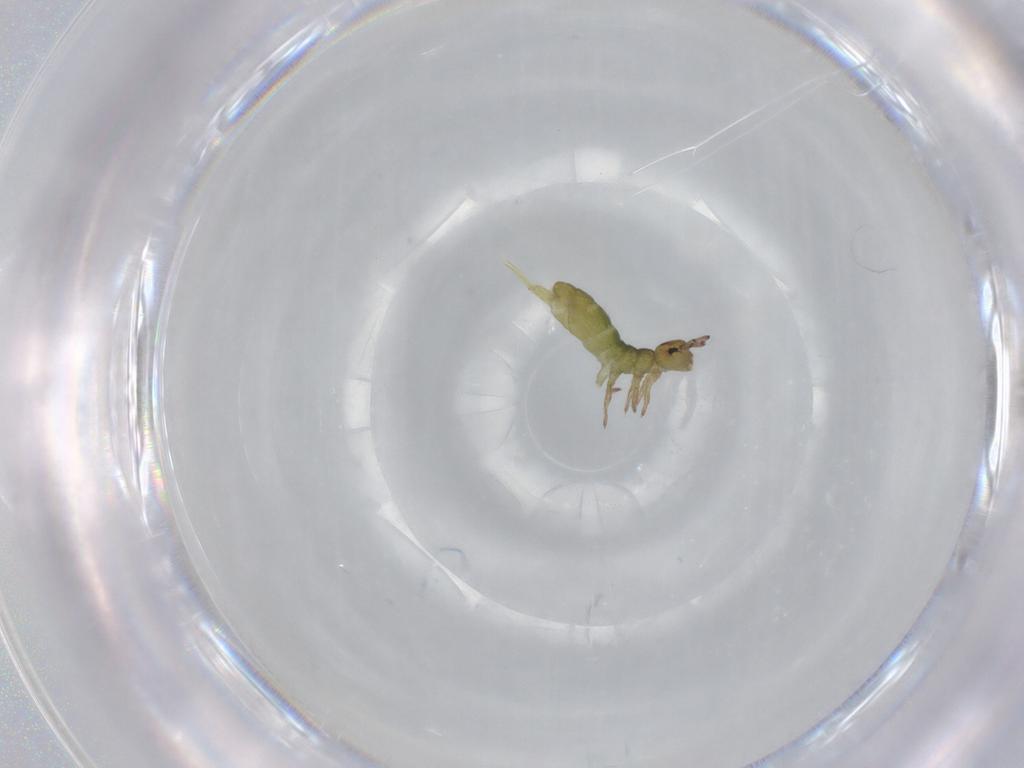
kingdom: Animalia
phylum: Arthropoda
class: Collembola
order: Entomobryomorpha
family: Isotomidae
